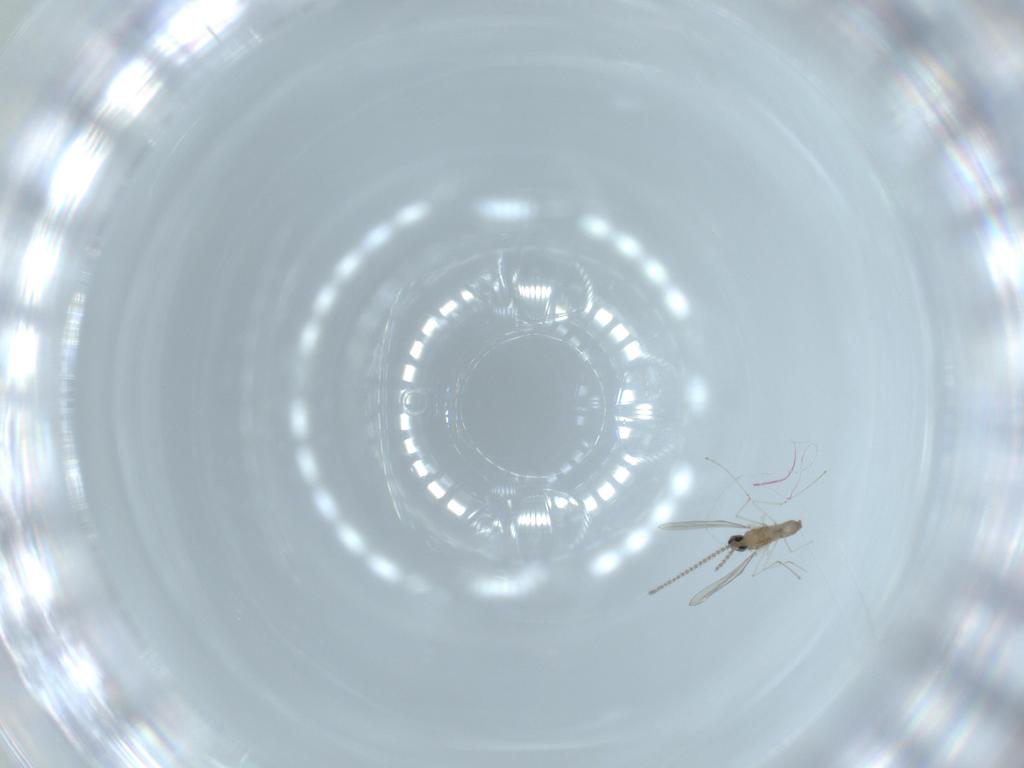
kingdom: Animalia
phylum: Arthropoda
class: Insecta
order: Diptera
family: Cecidomyiidae
